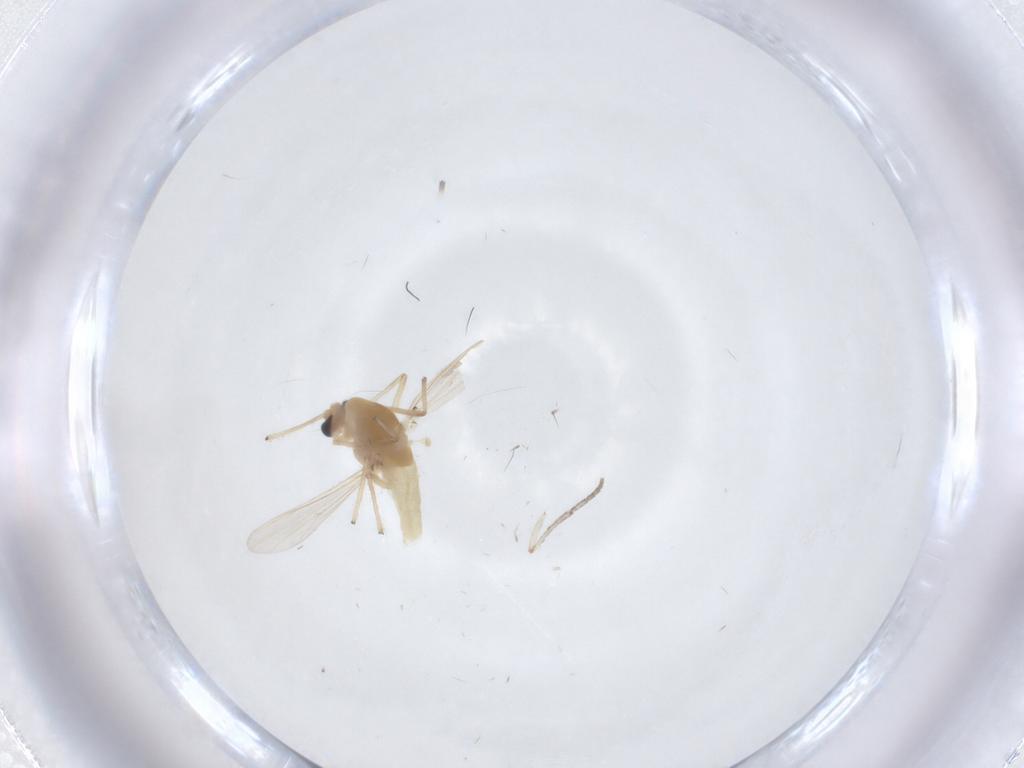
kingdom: Animalia
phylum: Arthropoda
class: Insecta
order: Diptera
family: Chironomidae
